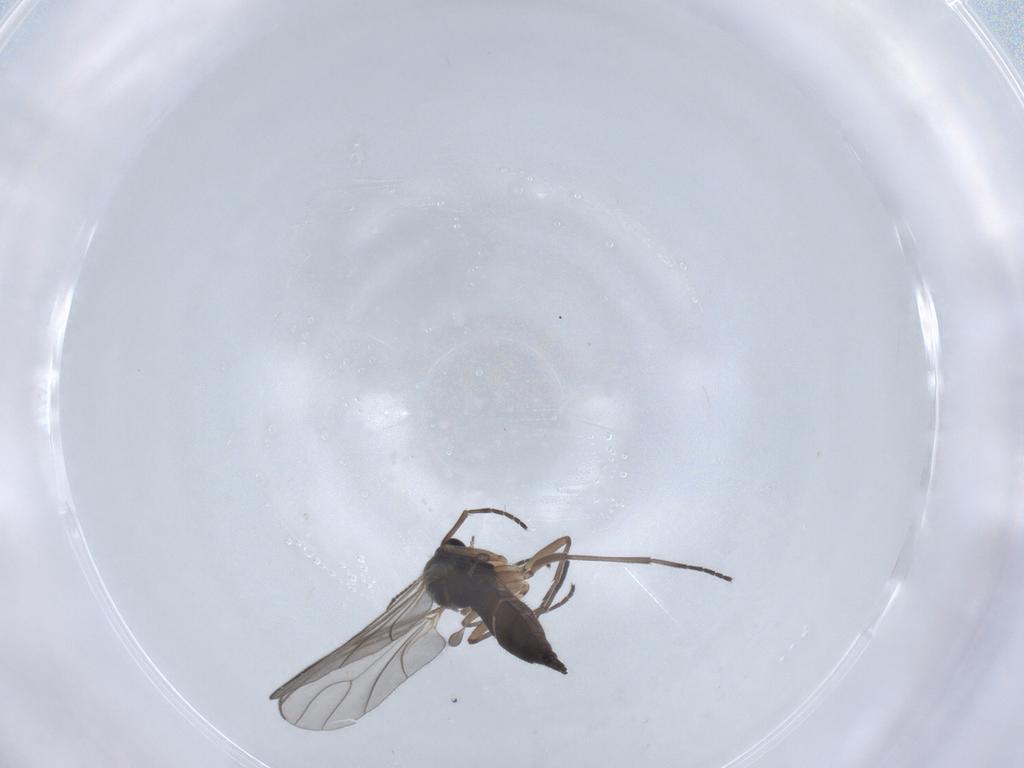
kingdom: Animalia
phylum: Arthropoda
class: Insecta
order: Diptera
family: Sciaridae
